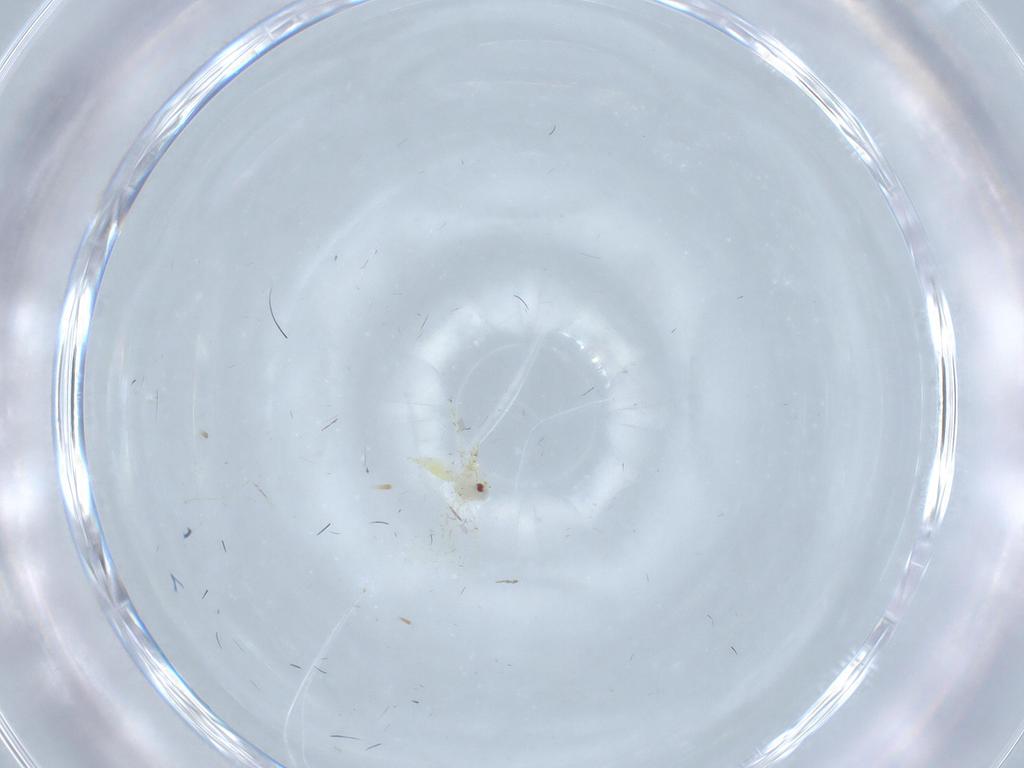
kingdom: Animalia
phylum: Arthropoda
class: Insecta
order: Hemiptera
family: Aleyrodidae
